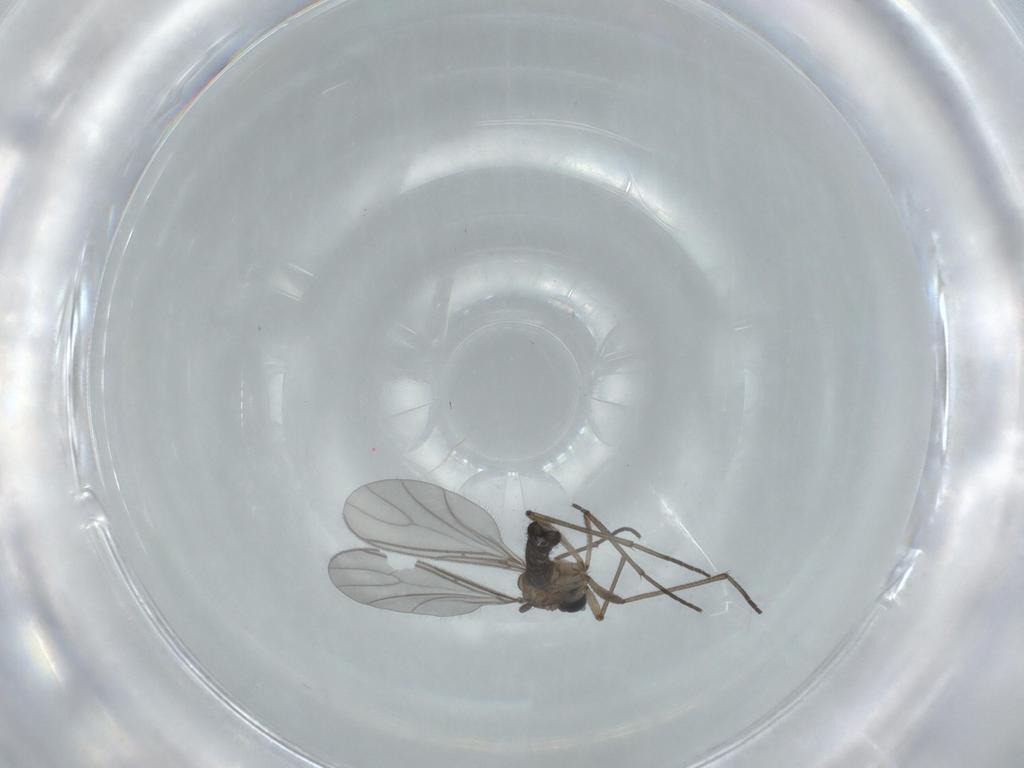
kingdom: Animalia
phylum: Arthropoda
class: Insecta
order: Diptera
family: Sciaridae
